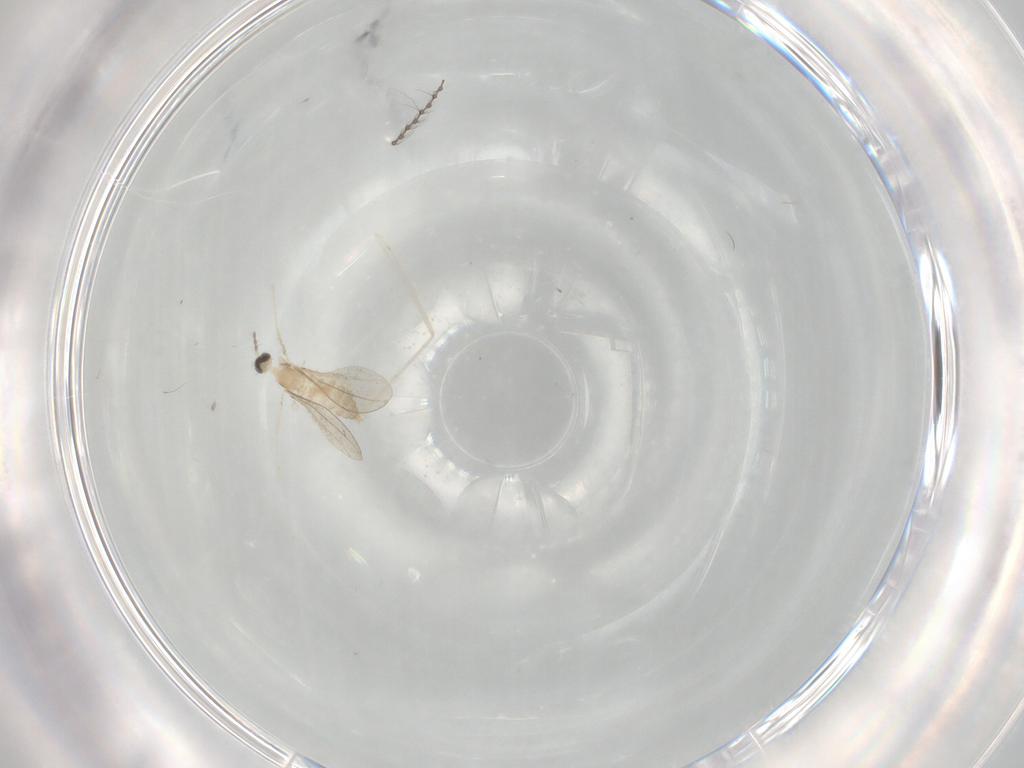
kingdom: Animalia
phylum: Arthropoda
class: Insecta
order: Diptera
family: Cecidomyiidae
